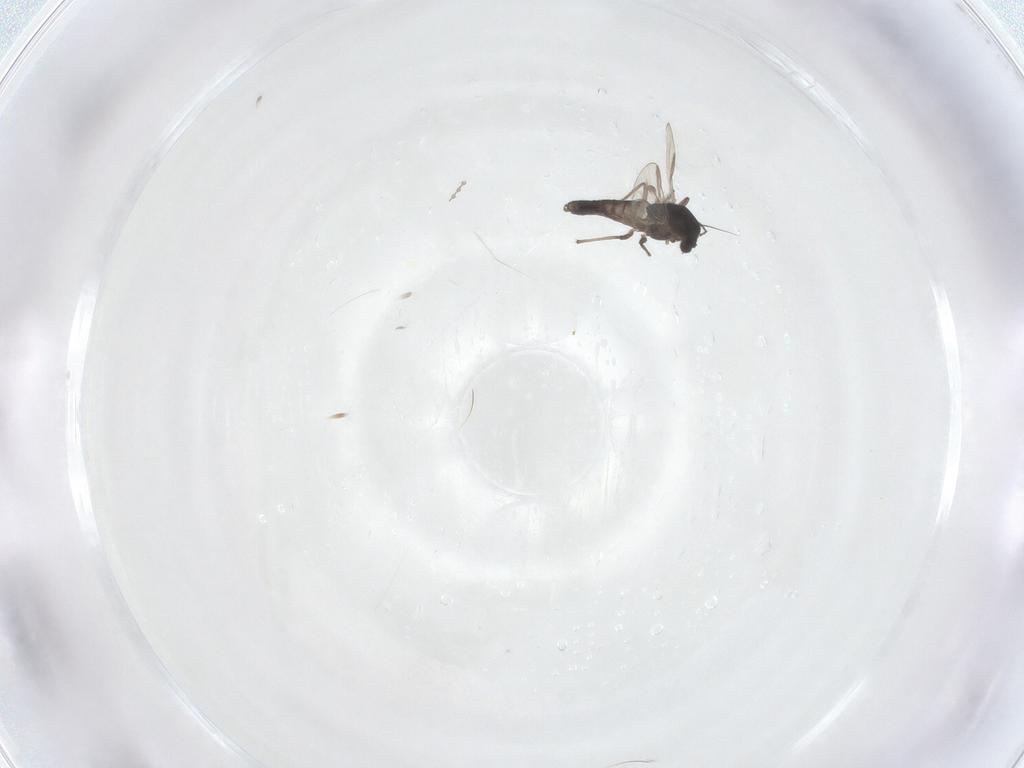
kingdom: Animalia
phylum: Arthropoda
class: Insecta
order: Diptera
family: Cecidomyiidae
